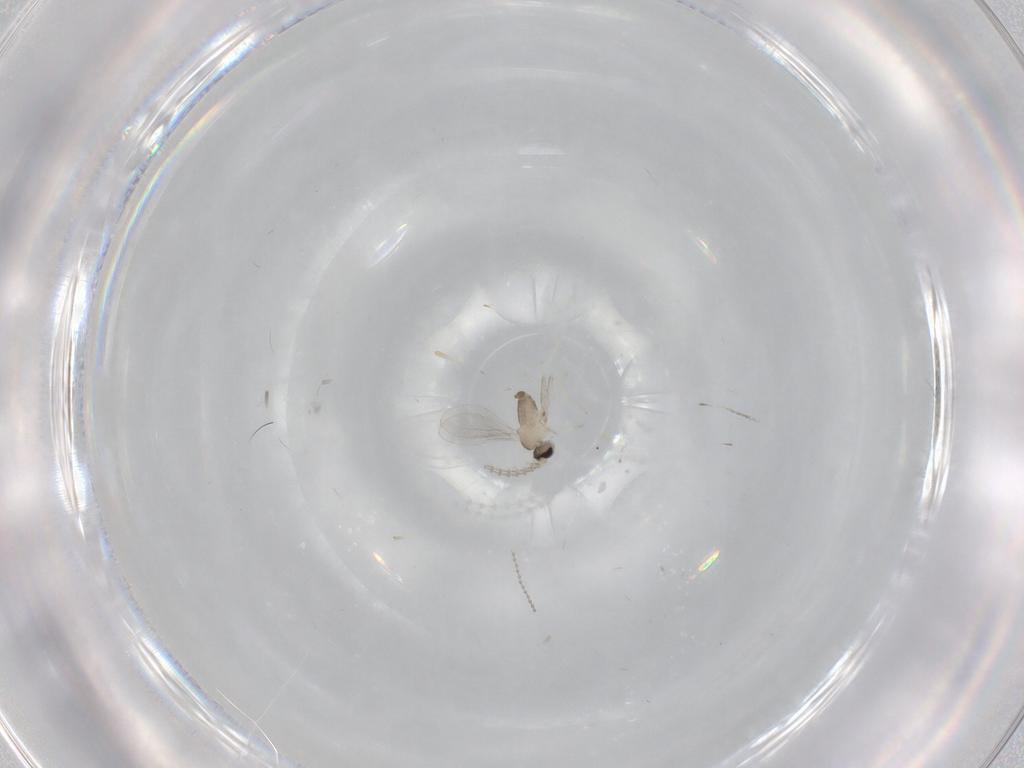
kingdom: Animalia
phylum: Arthropoda
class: Insecta
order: Diptera
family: Cecidomyiidae
